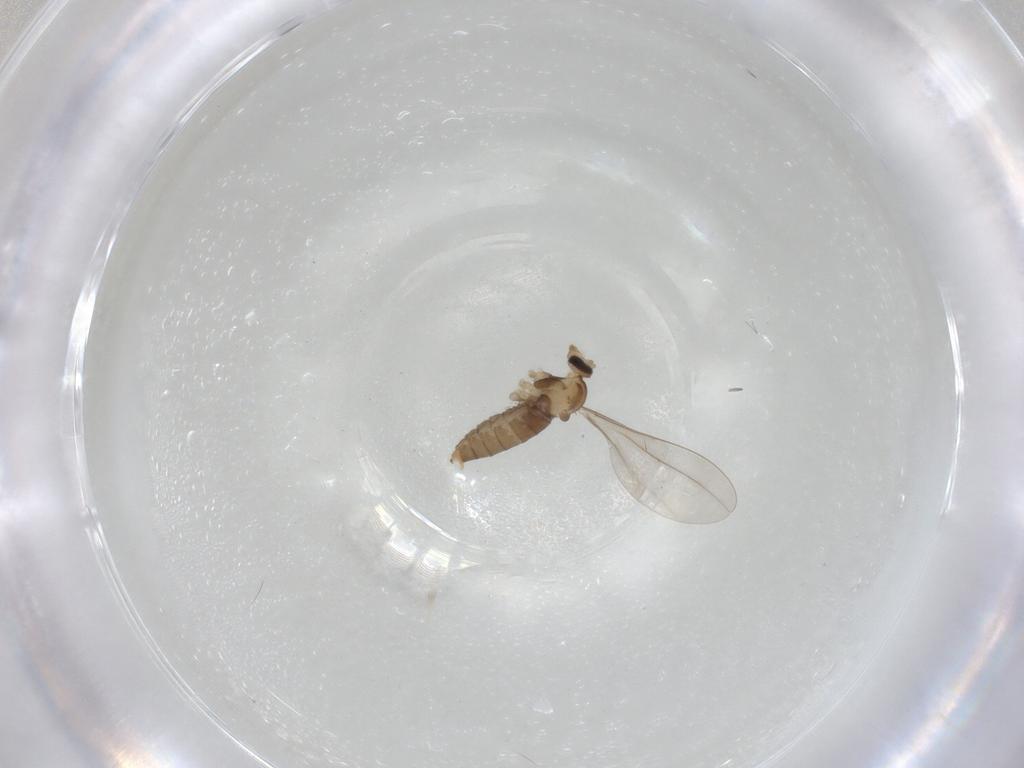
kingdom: Animalia
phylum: Arthropoda
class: Insecta
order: Diptera
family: Cecidomyiidae
